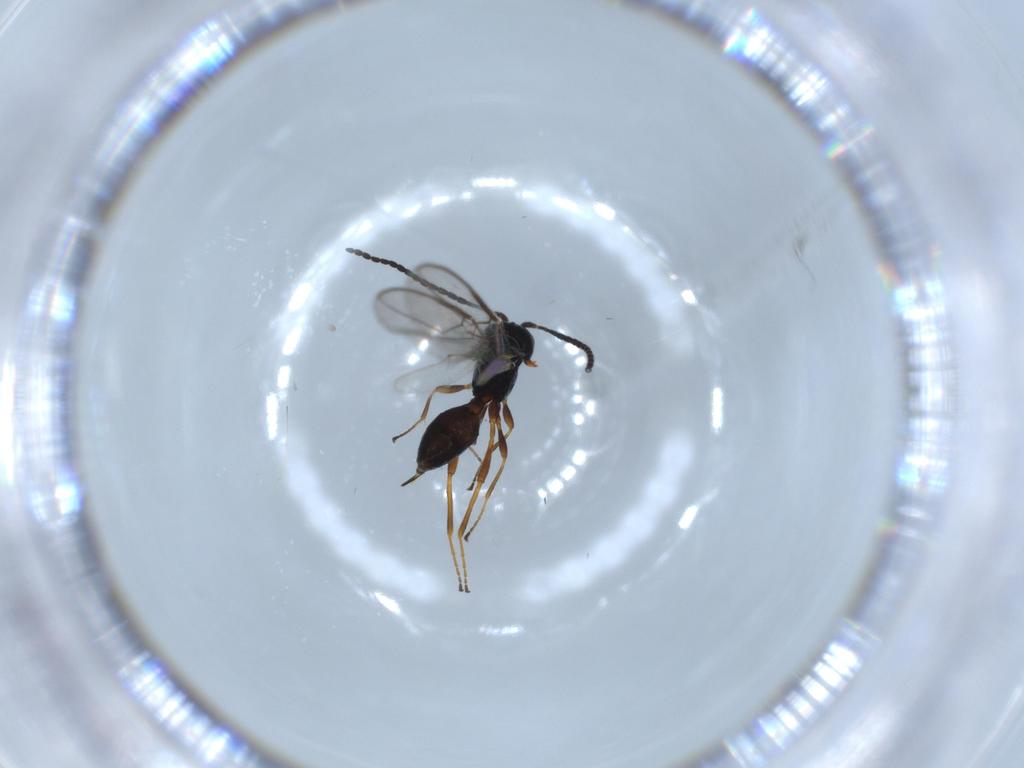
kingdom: Animalia
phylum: Arthropoda
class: Insecta
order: Hymenoptera
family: Braconidae
